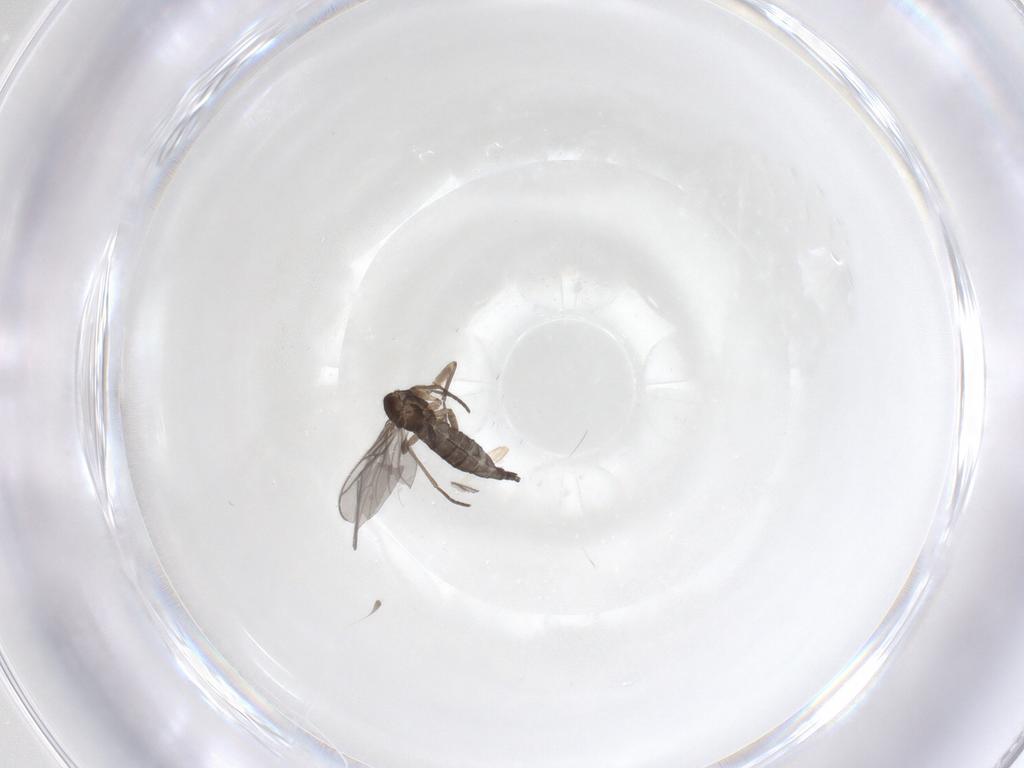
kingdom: Animalia
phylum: Arthropoda
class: Insecta
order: Diptera
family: Sciaridae
